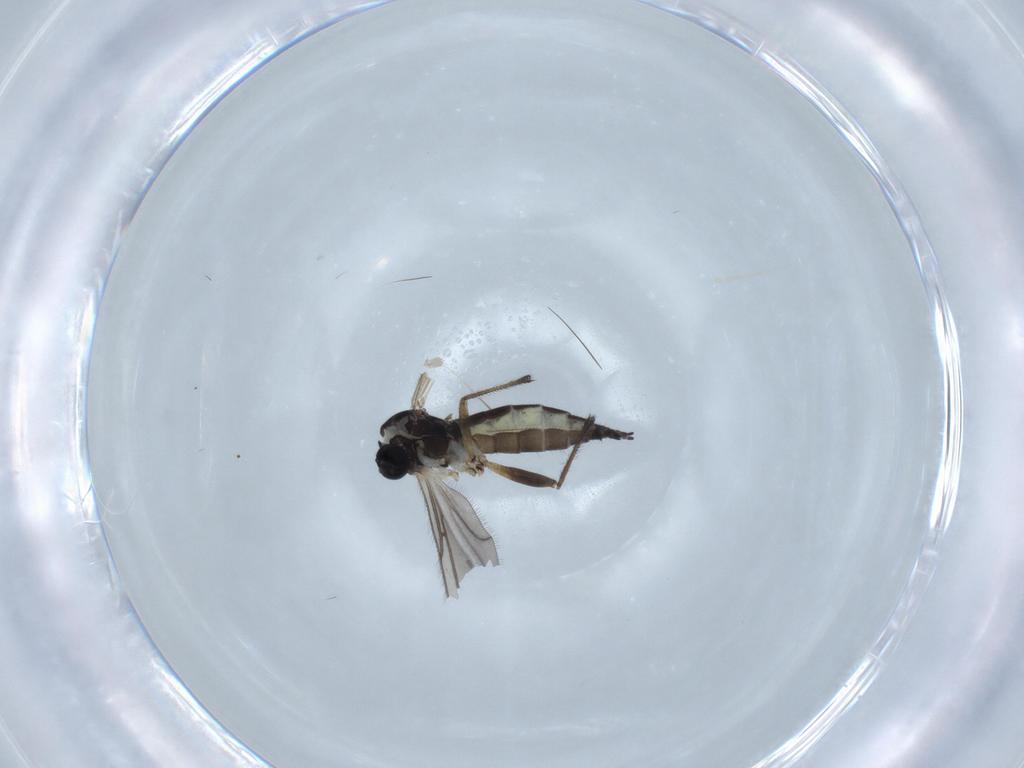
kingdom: Animalia
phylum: Arthropoda
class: Insecta
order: Diptera
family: Sciaridae
